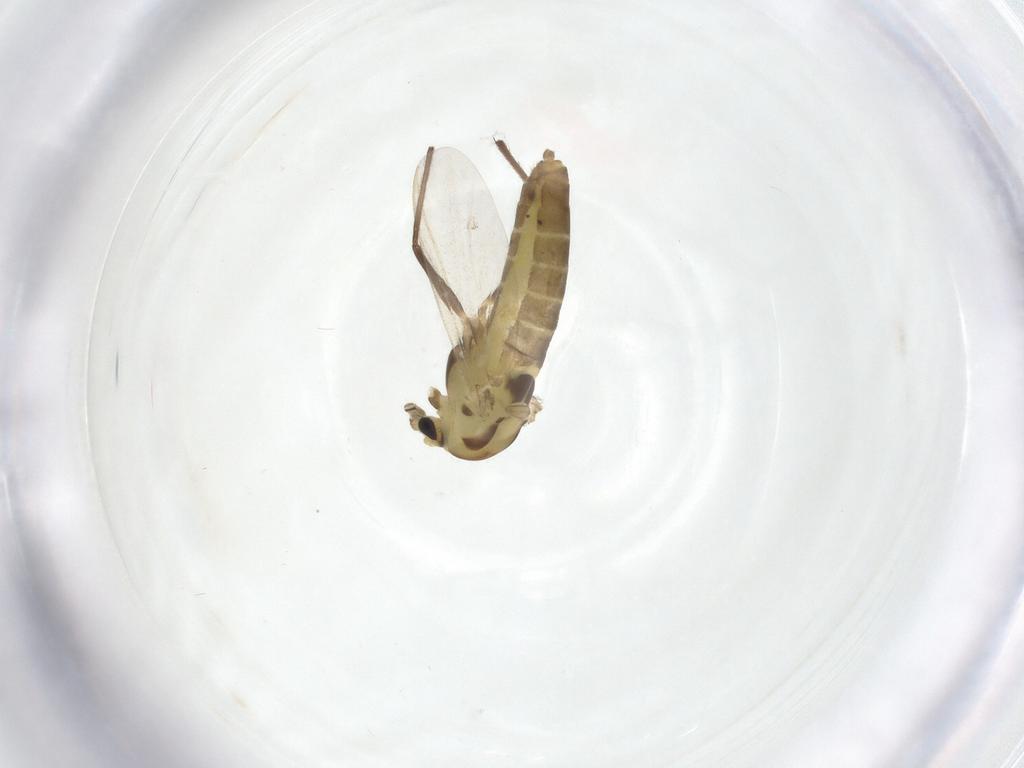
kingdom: Animalia
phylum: Arthropoda
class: Insecta
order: Diptera
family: Chironomidae
